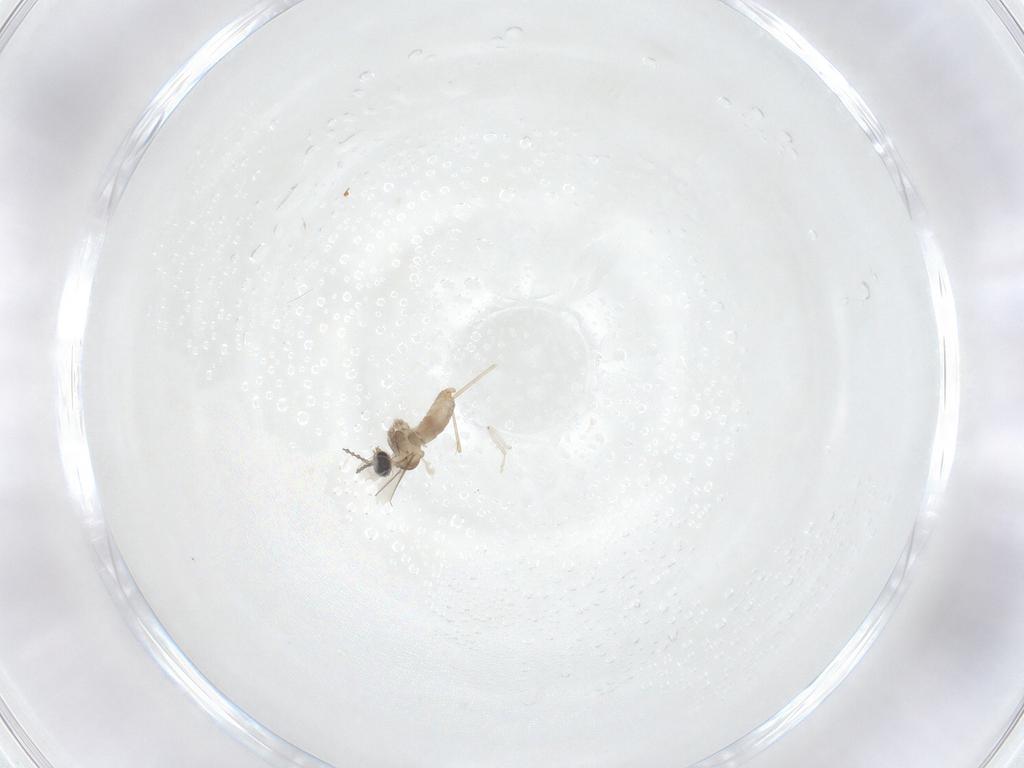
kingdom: Animalia
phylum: Arthropoda
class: Insecta
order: Diptera
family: Cecidomyiidae
